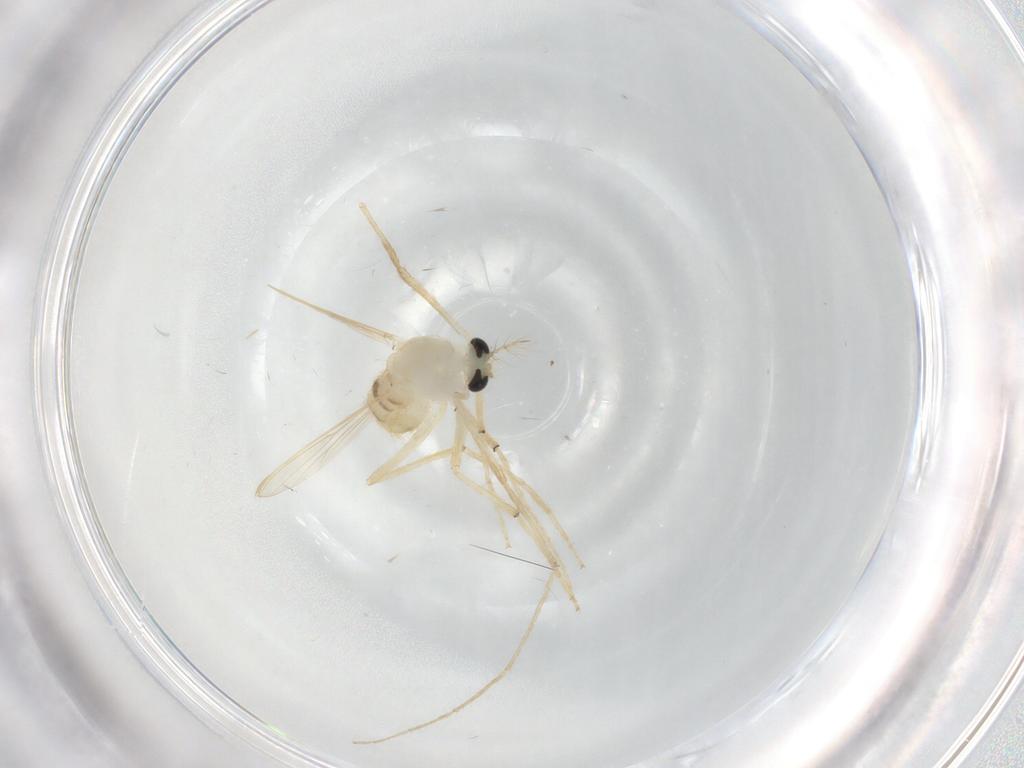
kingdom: Animalia
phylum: Arthropoda
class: Insecta
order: Diptera
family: Chironomidae
